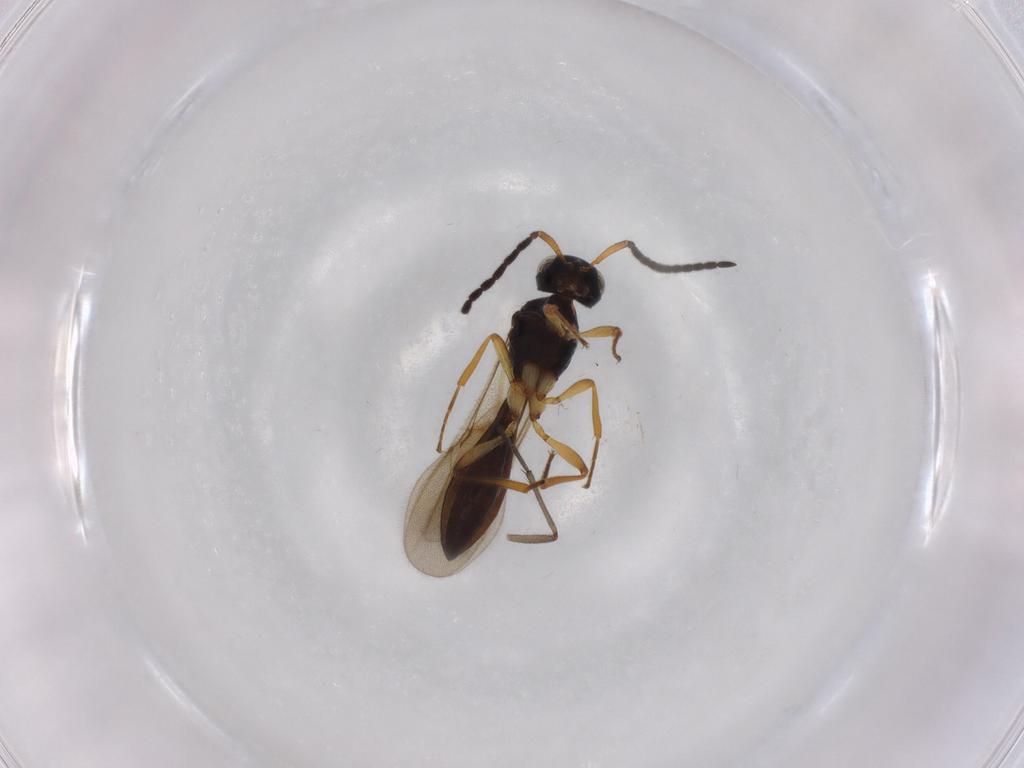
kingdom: Animalia
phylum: Arthropoda
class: Insecta
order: Hymenoptera
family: Scelionidae
